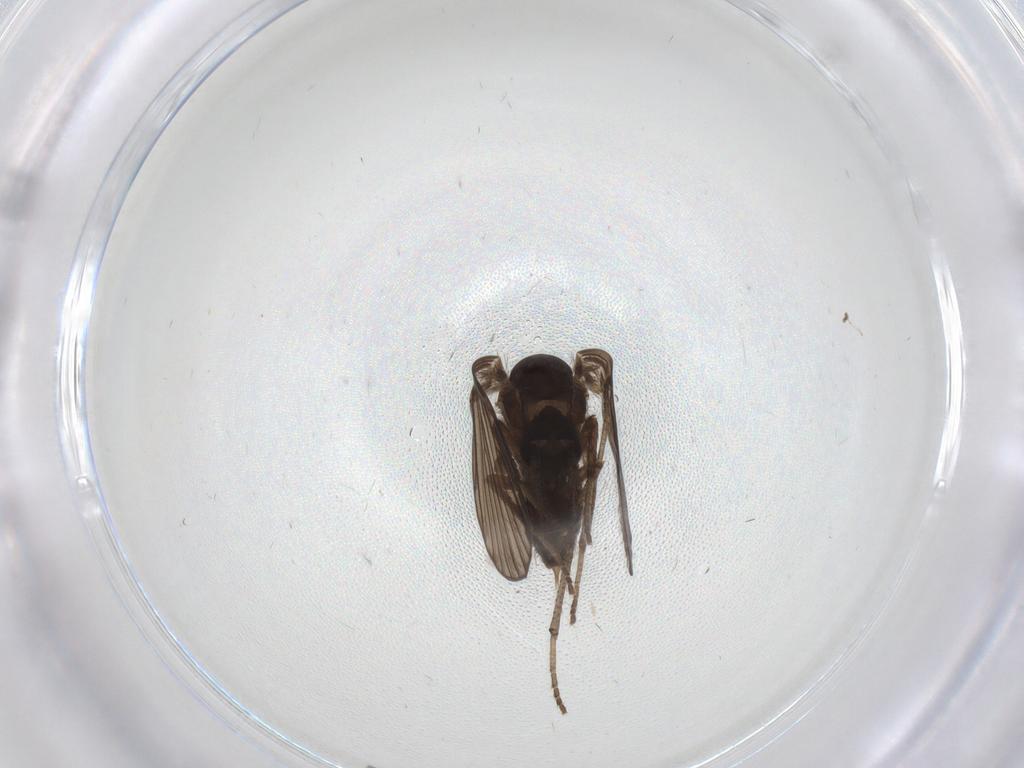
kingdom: Animalia
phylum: Arthropoda
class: Insecta
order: Diptera
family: Psychodidae
